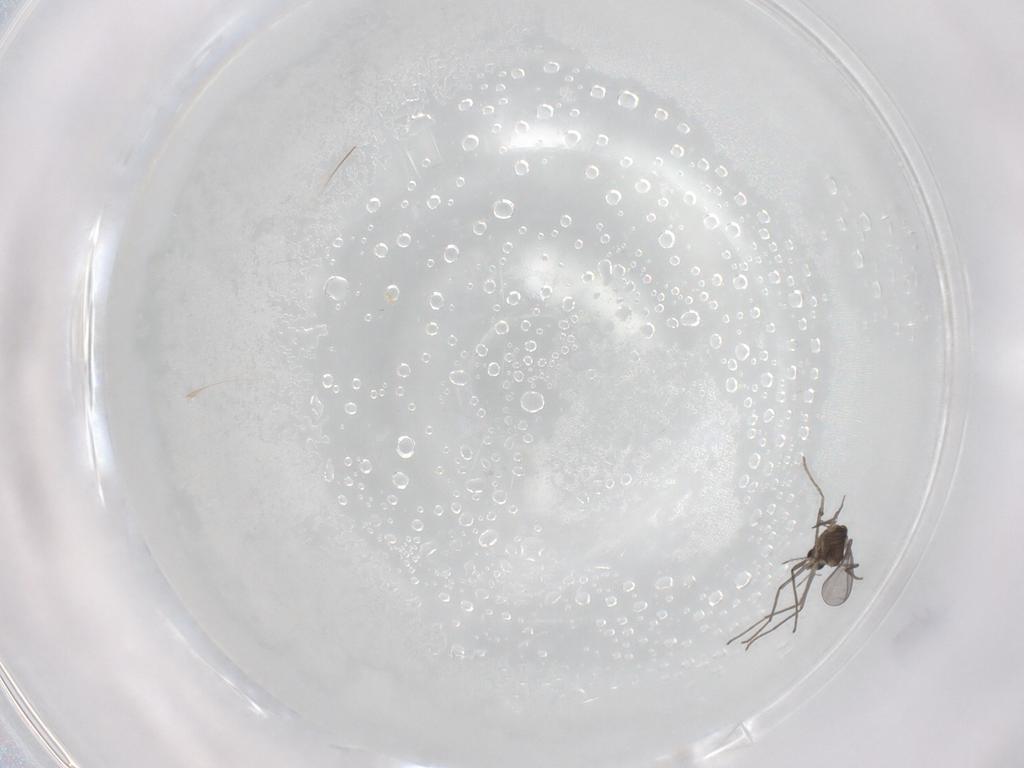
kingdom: Animalia
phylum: Arthropoda
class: Insecta
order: Diptera
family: Chironomidae
